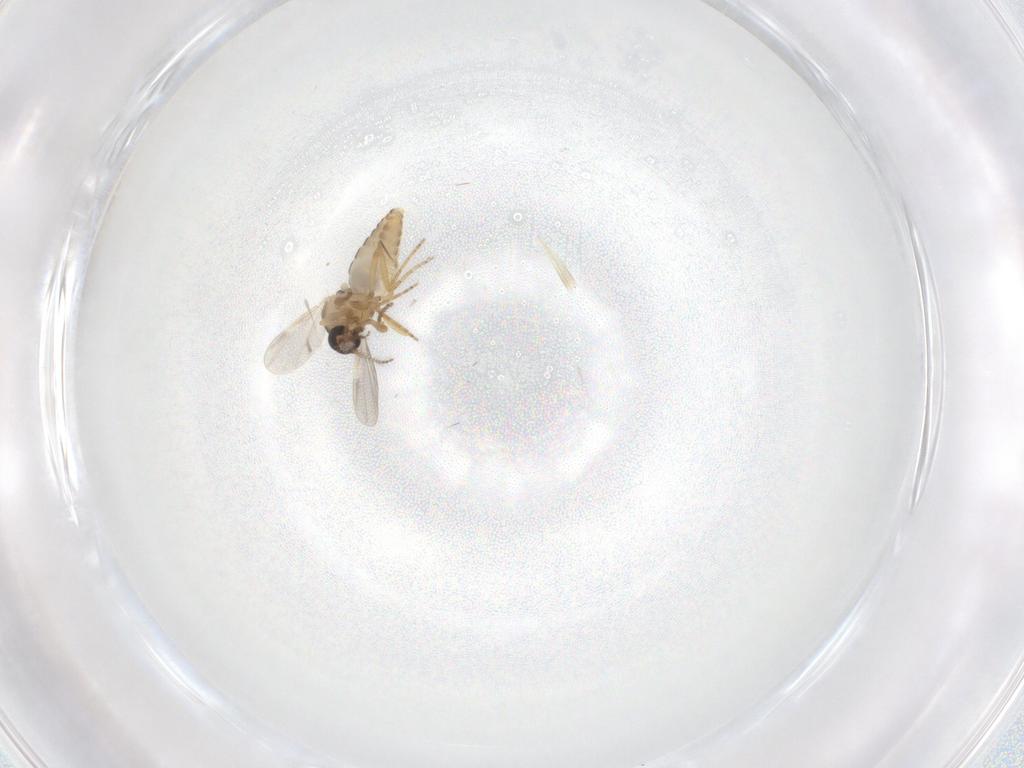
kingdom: Animalia
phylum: Arthropoda
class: Insecta
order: Diptera
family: Ceratopogonidae
